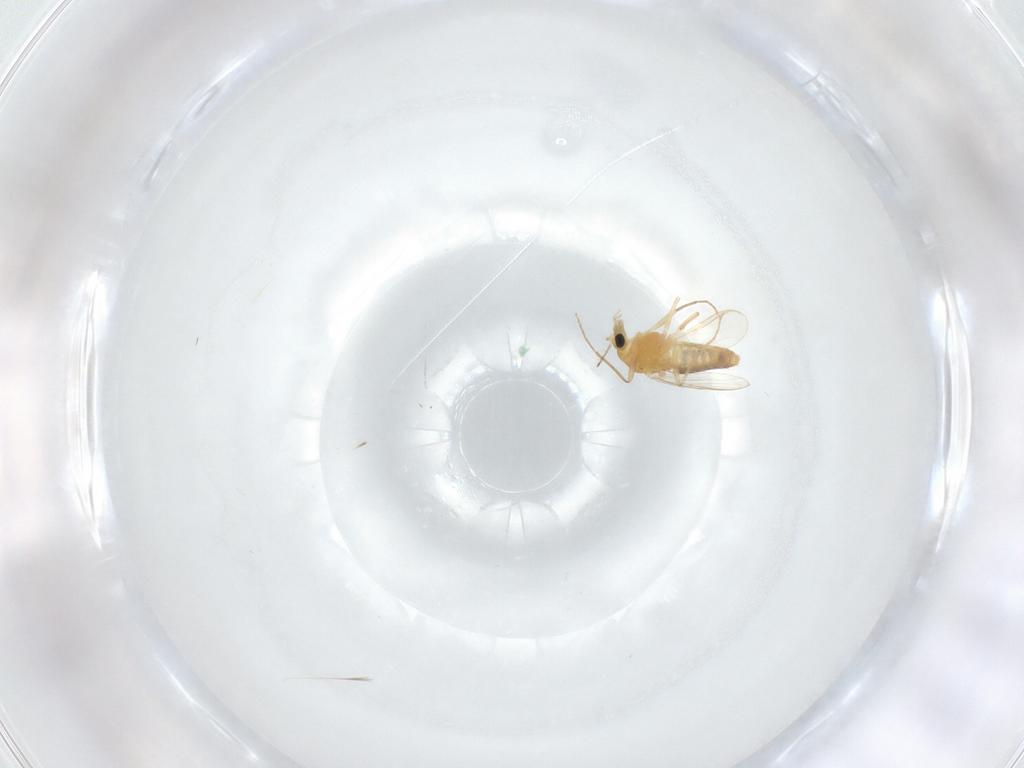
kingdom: Animalia
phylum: Arthropoda
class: Insecta
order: Diptera
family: Chironomidae
